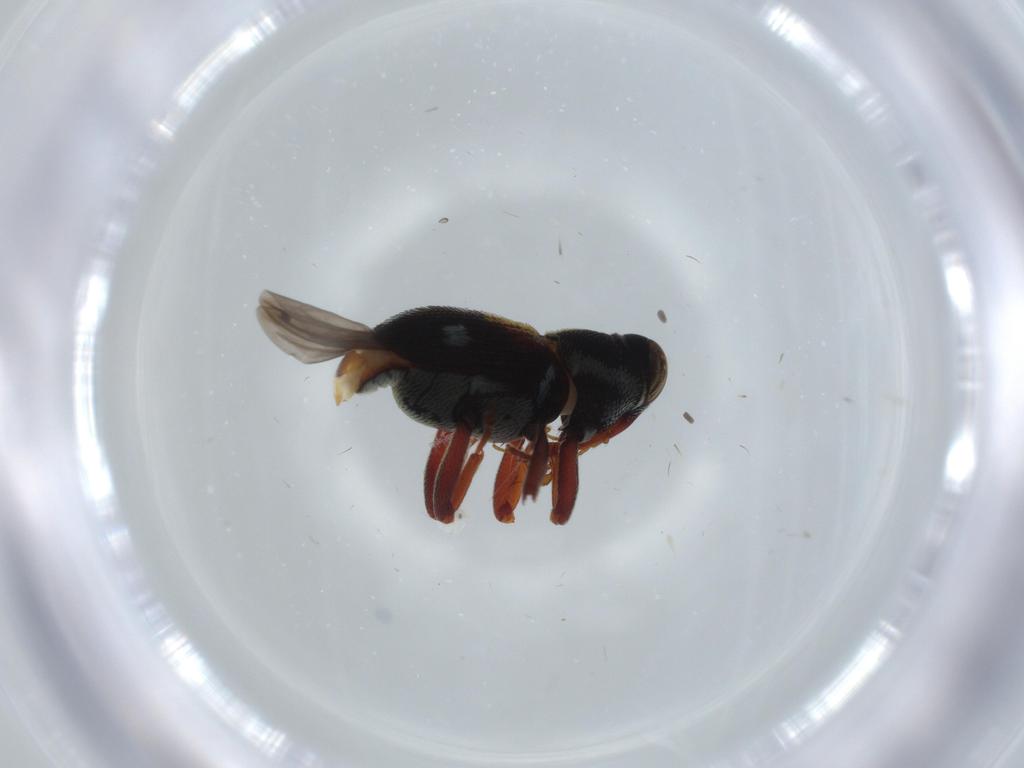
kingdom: Animalia
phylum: Arthropoda
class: Insecta
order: Coleoptera
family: Curculionidae
